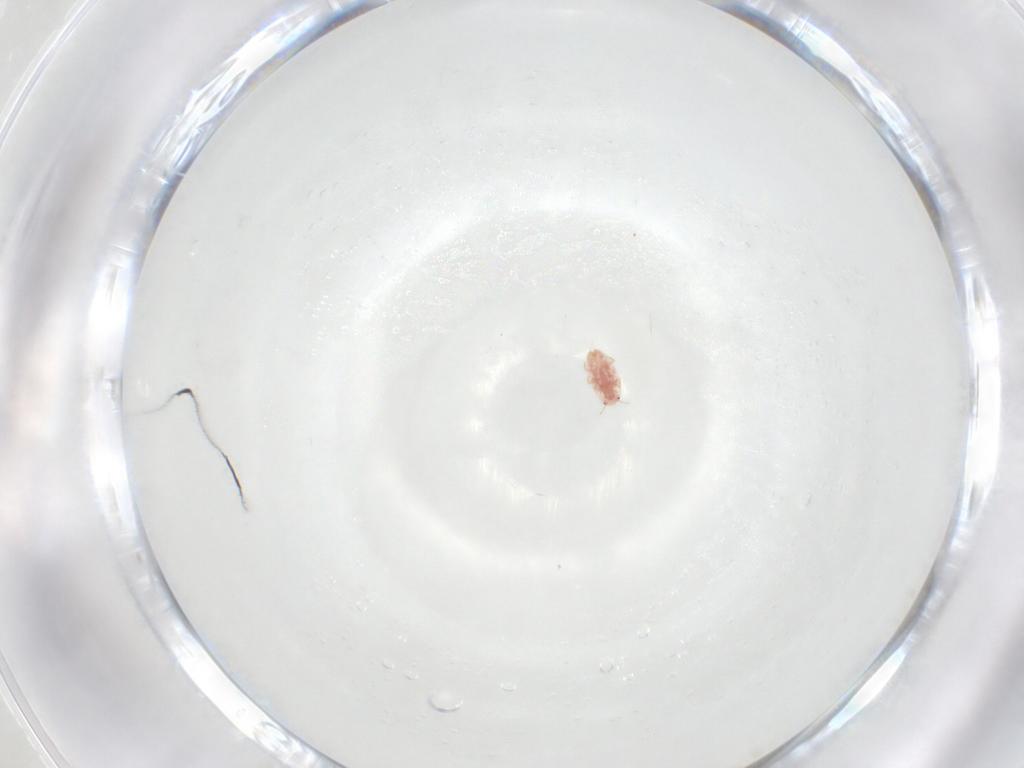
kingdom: Animalia
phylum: Arthropoda
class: Insecta
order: Hemiptera
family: Coccidae
